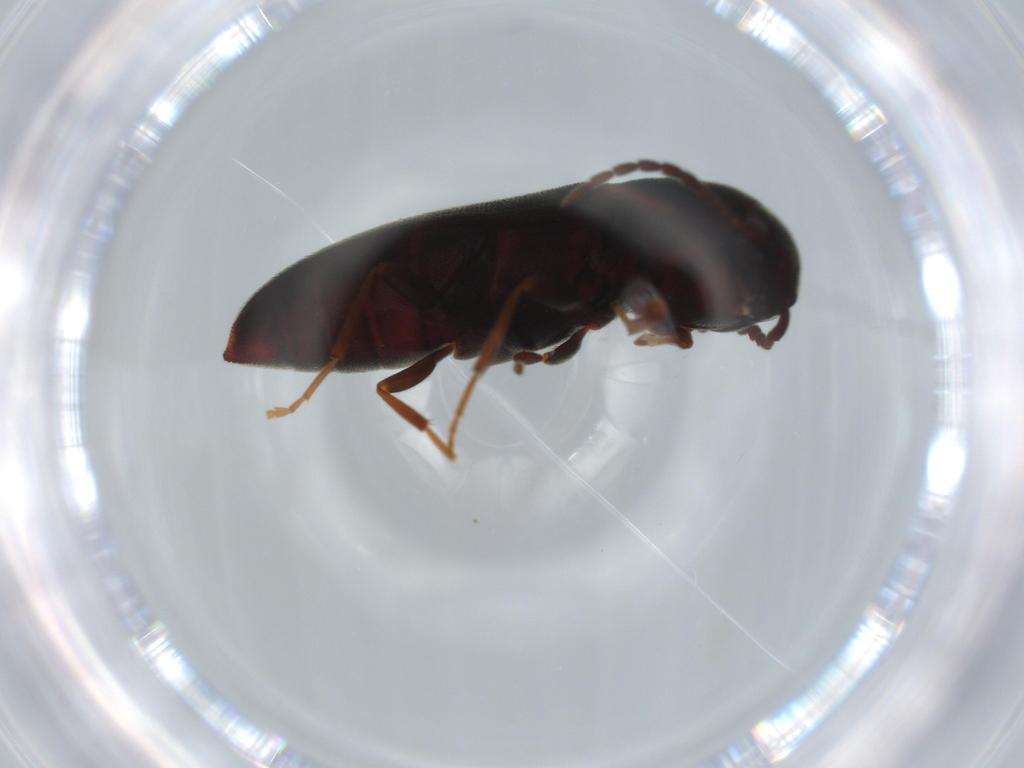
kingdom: Animalia
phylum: Arthropoda
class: Insecta
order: Coleoptera
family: Eucnemidae
